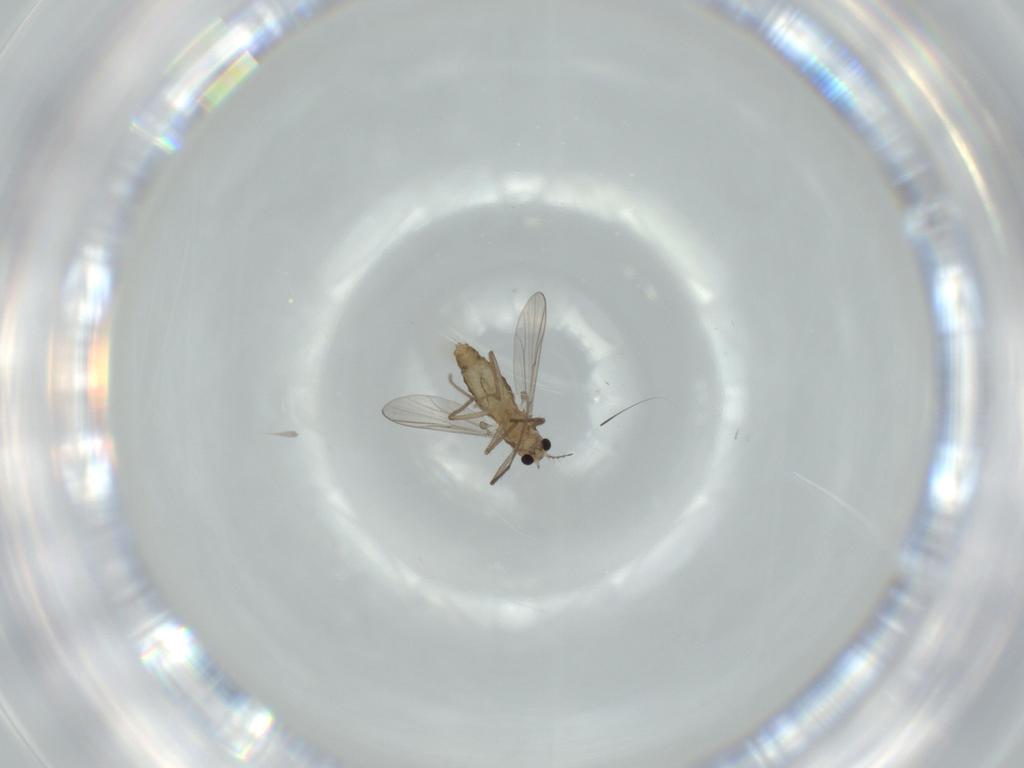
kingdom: Animalia
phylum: Arthropoda
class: Insecta
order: Diptera
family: Chironomidae
